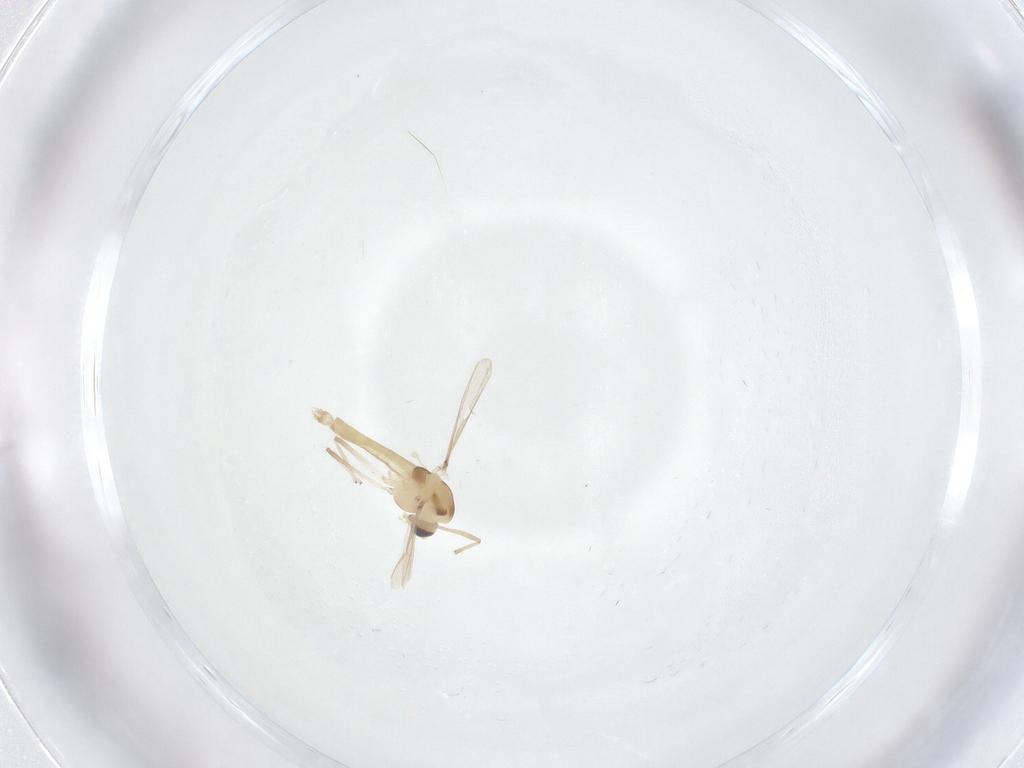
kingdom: Animalia
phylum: Arthropoda
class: Insecta
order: Diptera
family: Chironomidae
